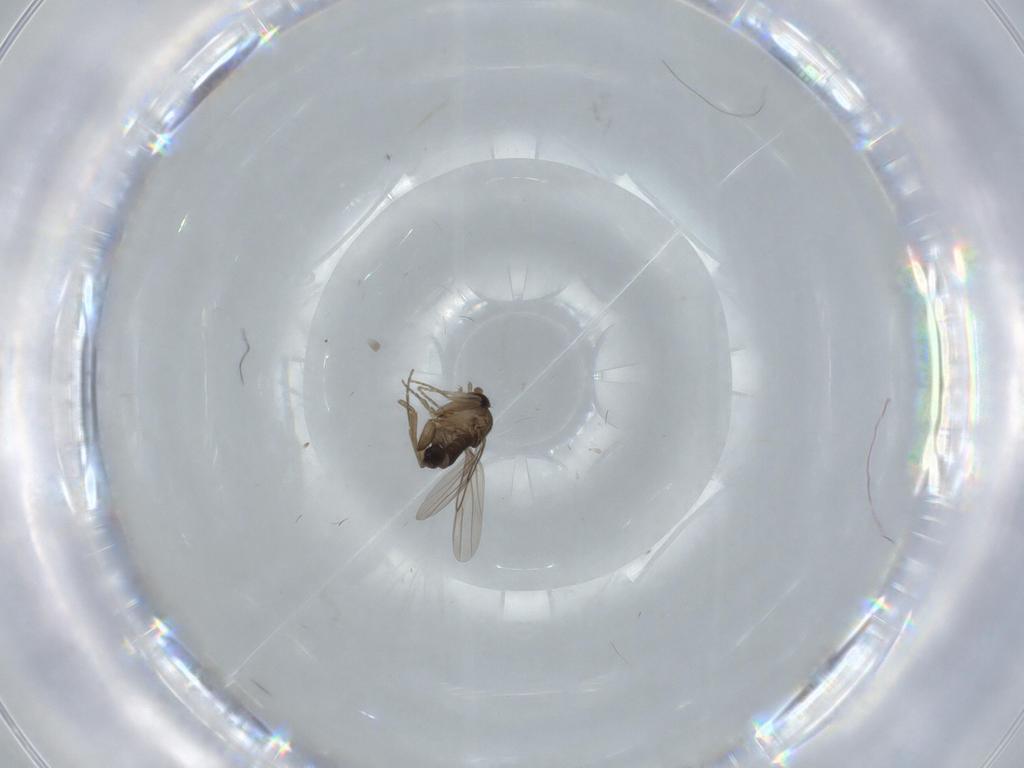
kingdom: Animalia
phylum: Arthropoda
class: Insecta
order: Diptera
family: Phoridae
